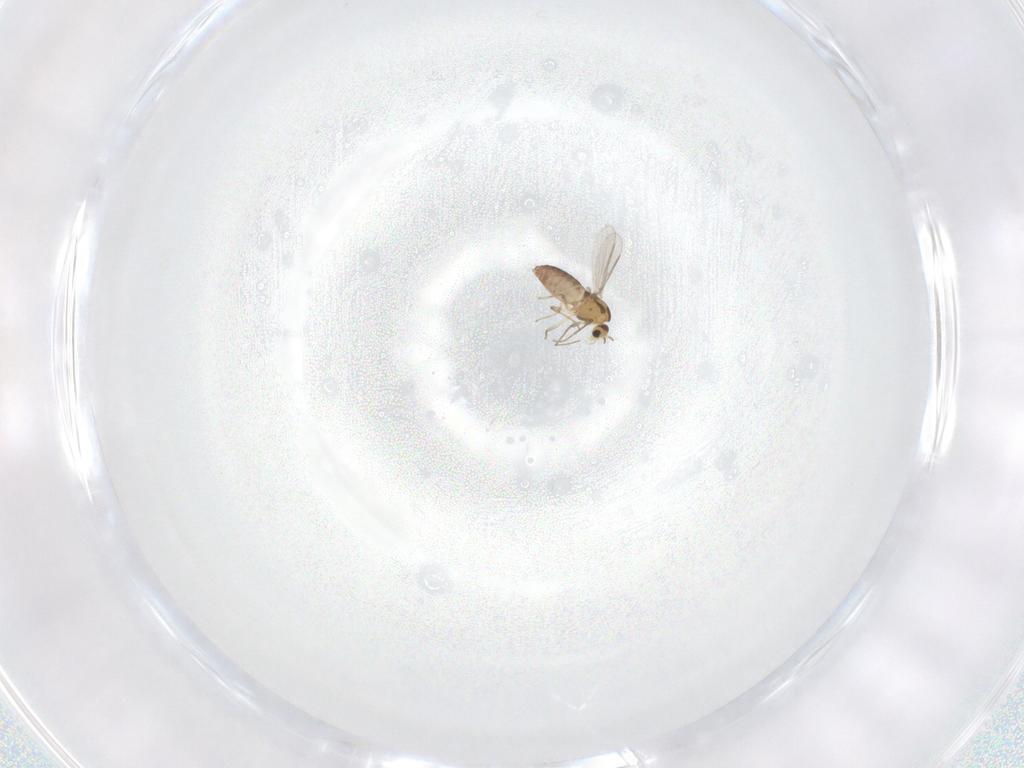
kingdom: Animalia
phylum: Arthropoda
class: Insecta
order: Diptera
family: Chironomidae
